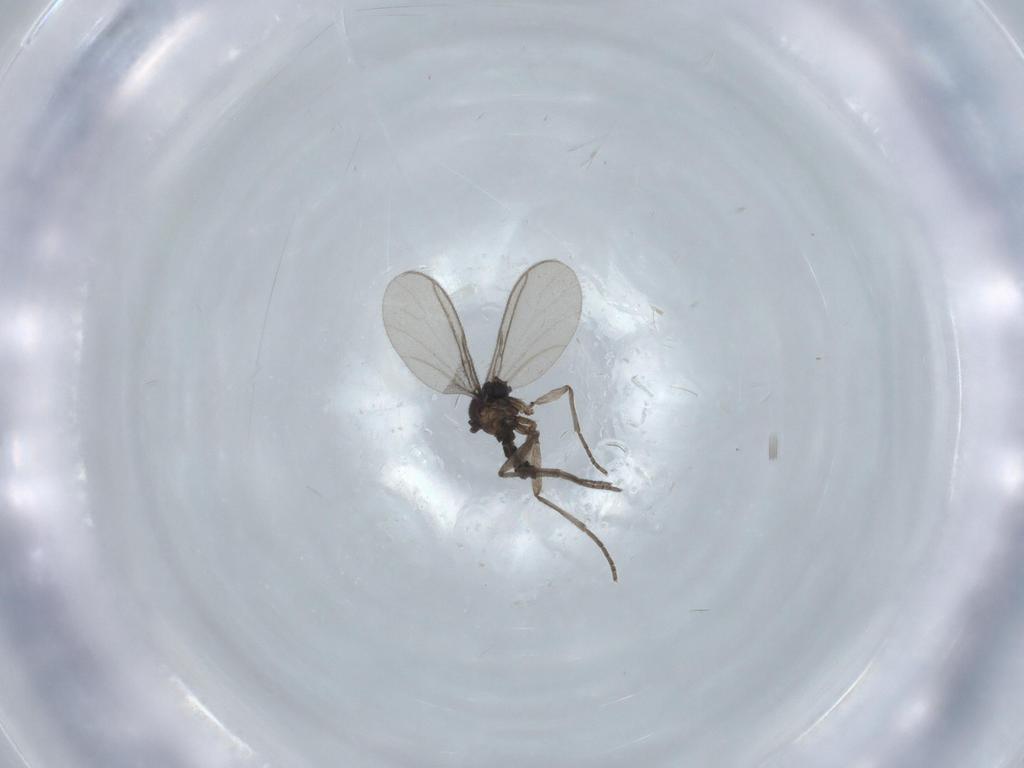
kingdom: Animalia
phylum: Arthropoda
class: Insecta
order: Diptera
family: Richardiidae
